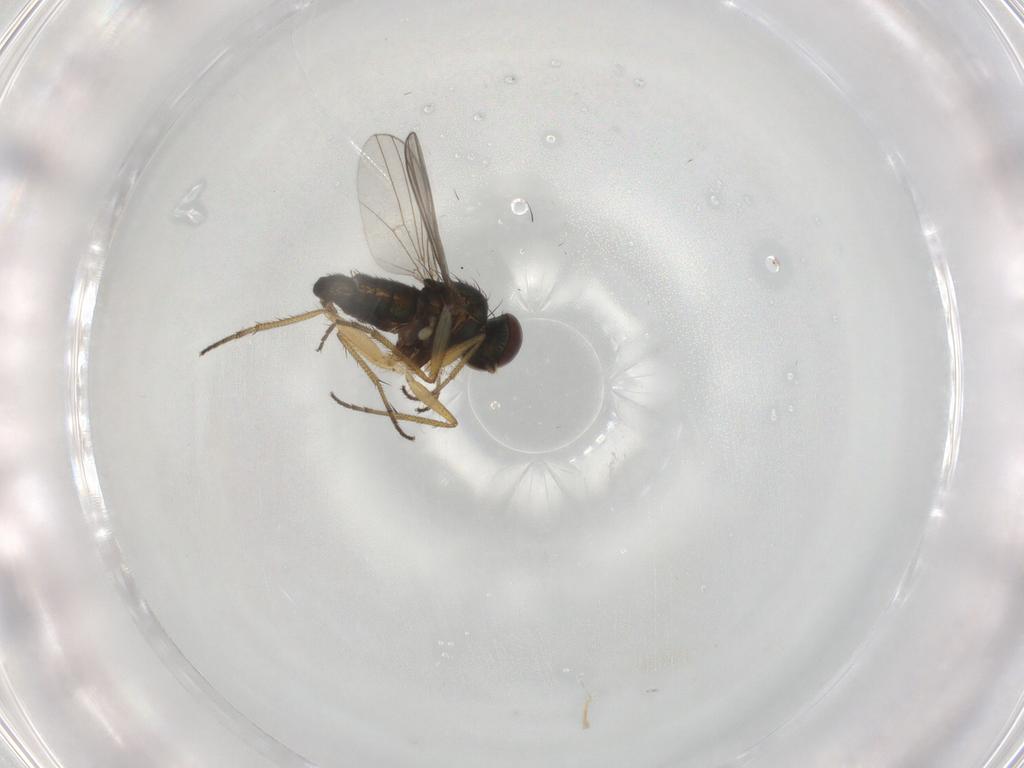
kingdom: Animalia
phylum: Arthropoda
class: Insecta
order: Diptera
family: Dolichopodidae
